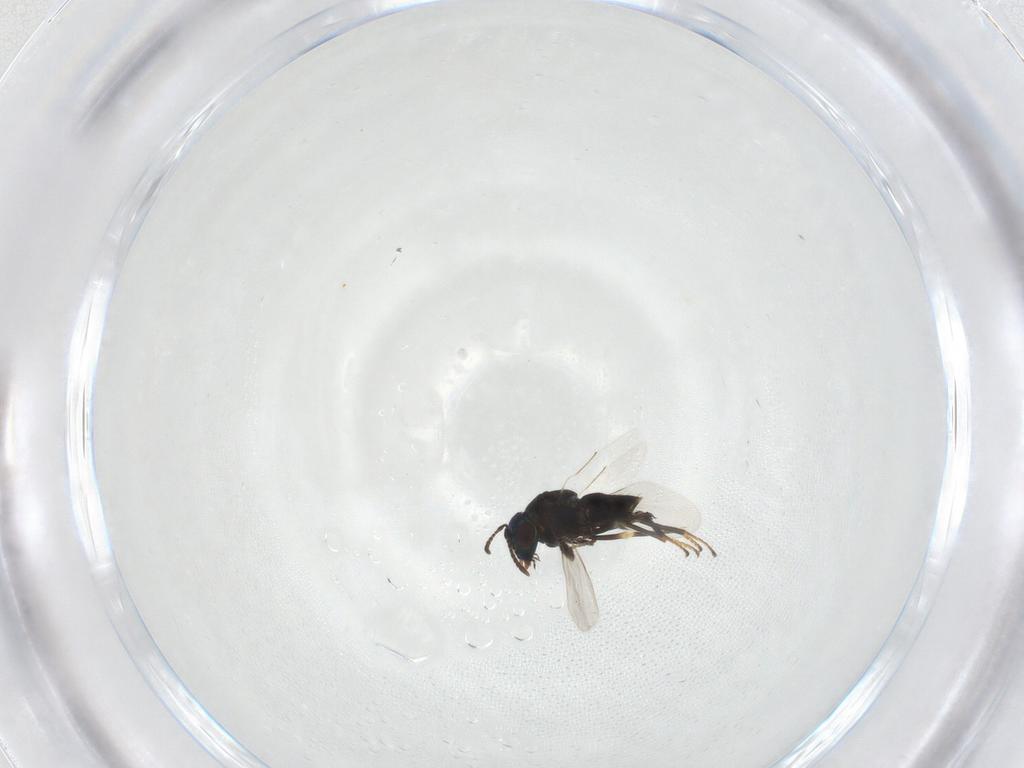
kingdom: Animalia
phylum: Arthropoda
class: Insecta
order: Hymenoptera
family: Encyrtidae
